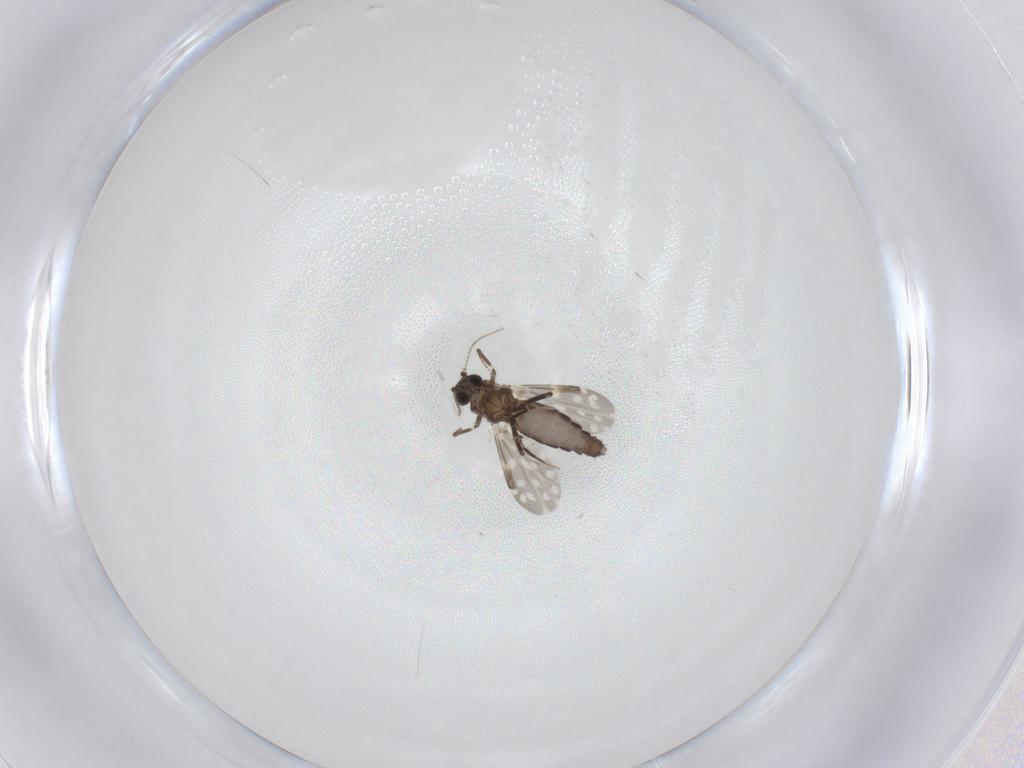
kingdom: Animalia
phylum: Arthropoda
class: Insecta
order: Diptera
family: Ceratopogonidae
